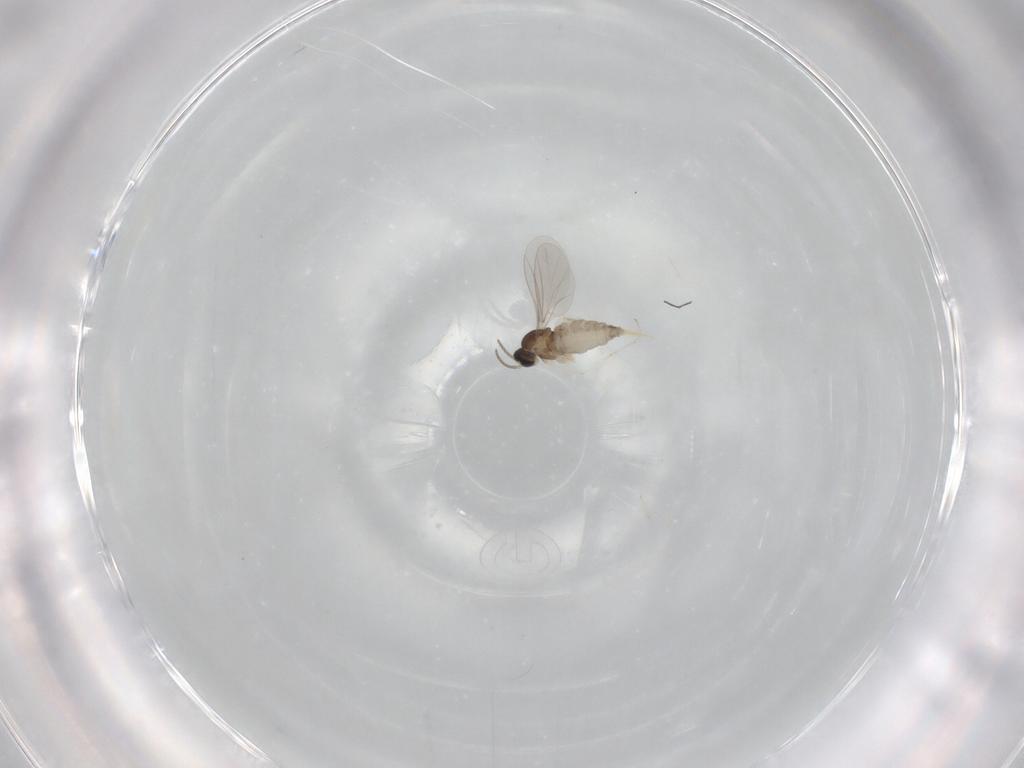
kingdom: Animalia
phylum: Arthropoda
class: Insecta
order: Diptera
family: Cecidomyiidae
